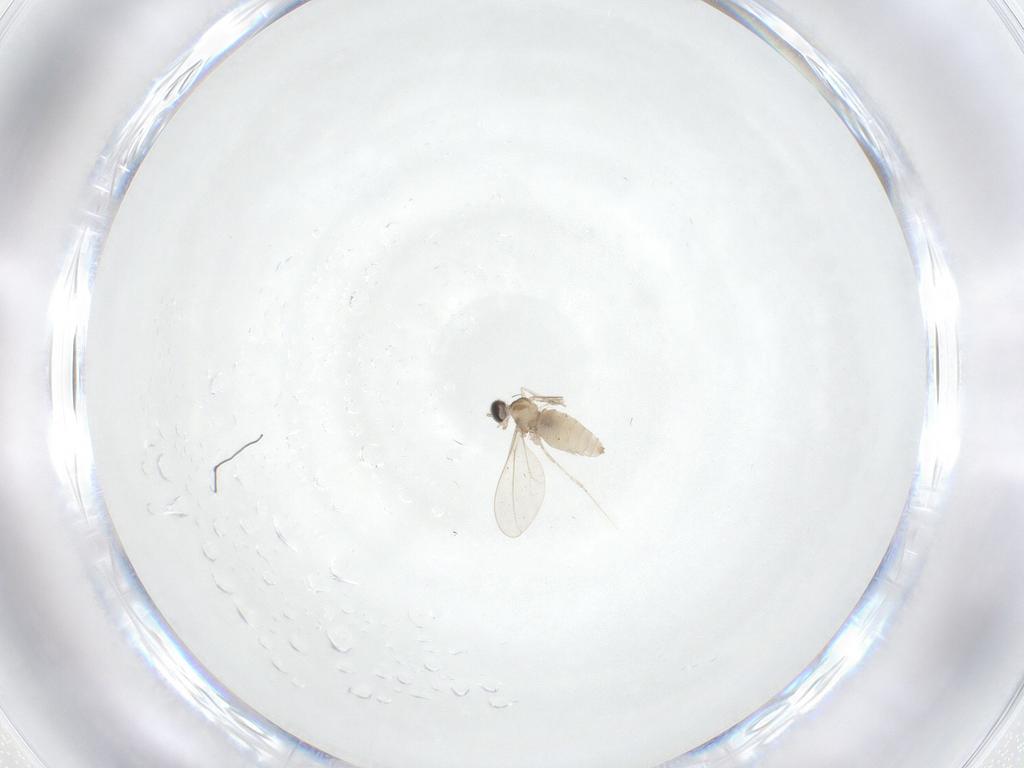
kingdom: Animalia
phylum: Arthropoda
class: Insecta
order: Diptera
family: Cecidomyiidae
